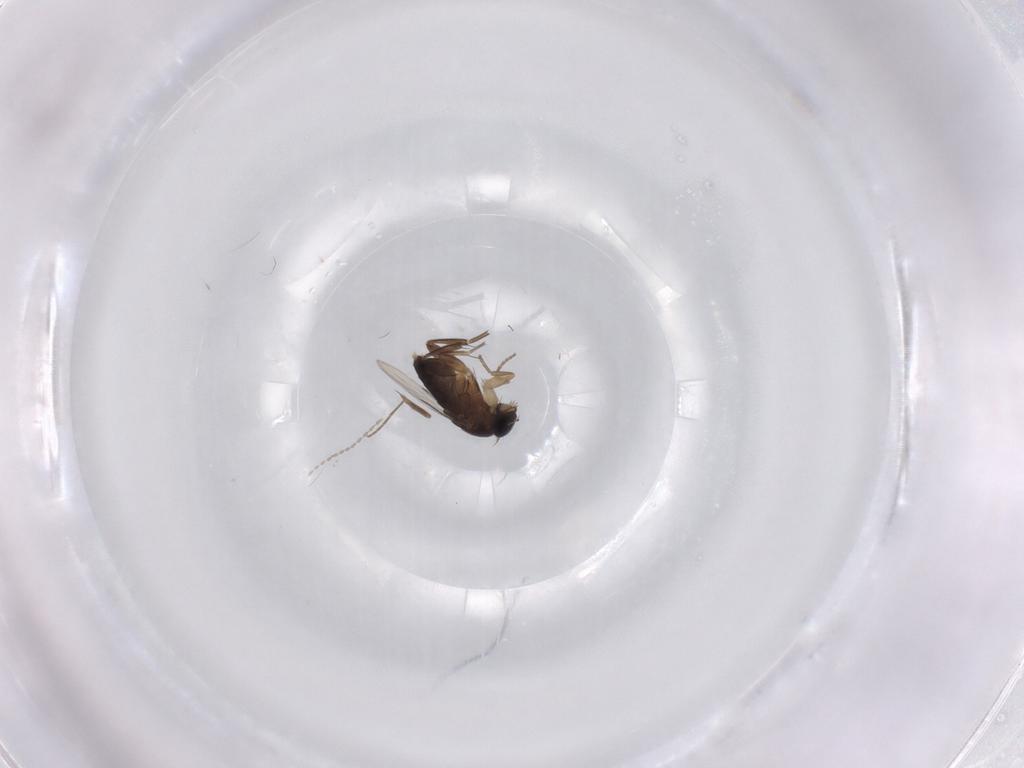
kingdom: Animalia
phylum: Arthropoda
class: Insecta
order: Diptera
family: Phoridae
